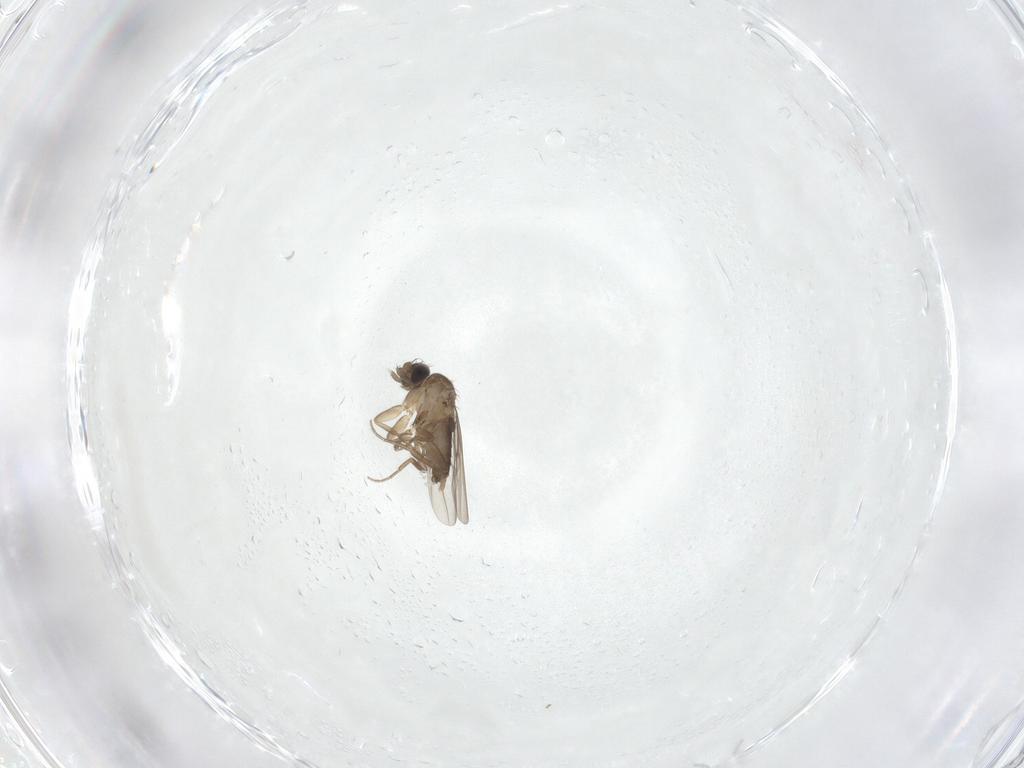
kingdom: Animalia
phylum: Arthropoda
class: Insecta
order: Diptera
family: Phoridae
